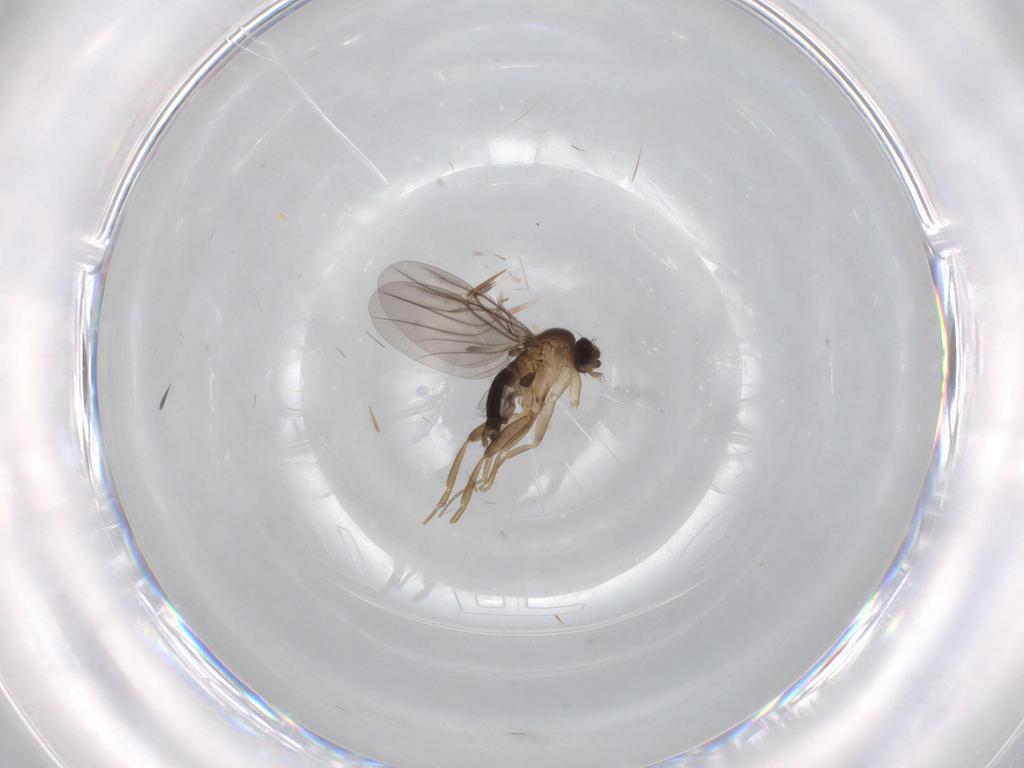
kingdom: Animalia
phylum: Arthropoda
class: Insecta
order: Diptera
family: Phoridae
